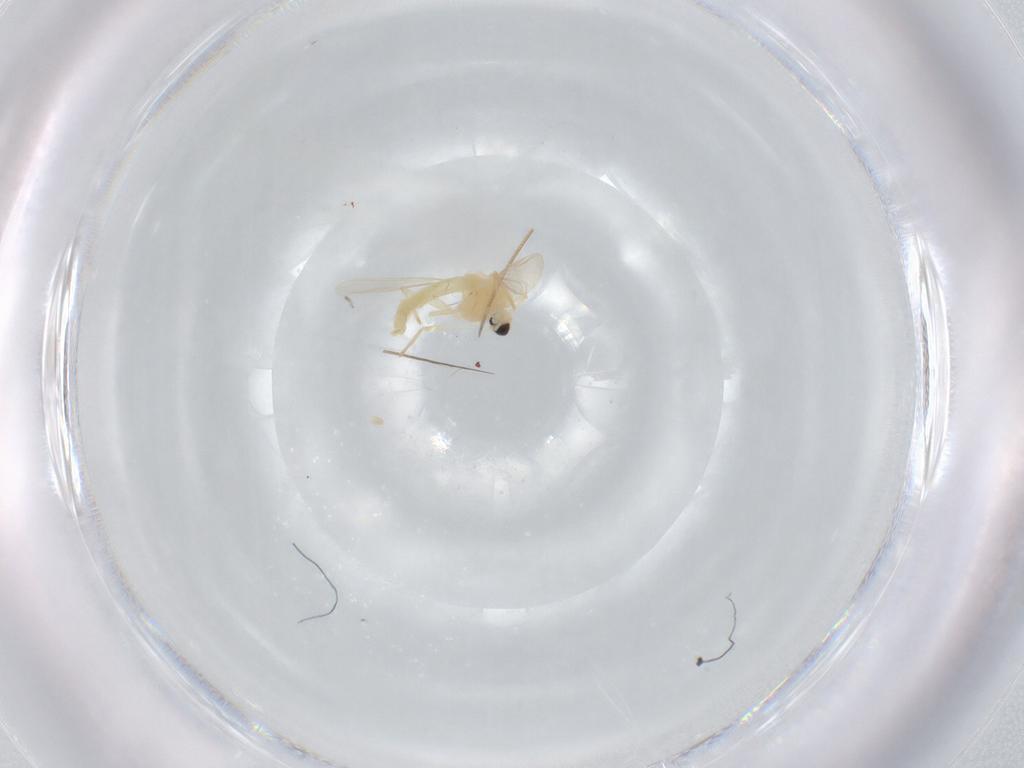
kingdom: Animalia
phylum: Arthropoda
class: Insecta
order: Diptera
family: Chironomidae
